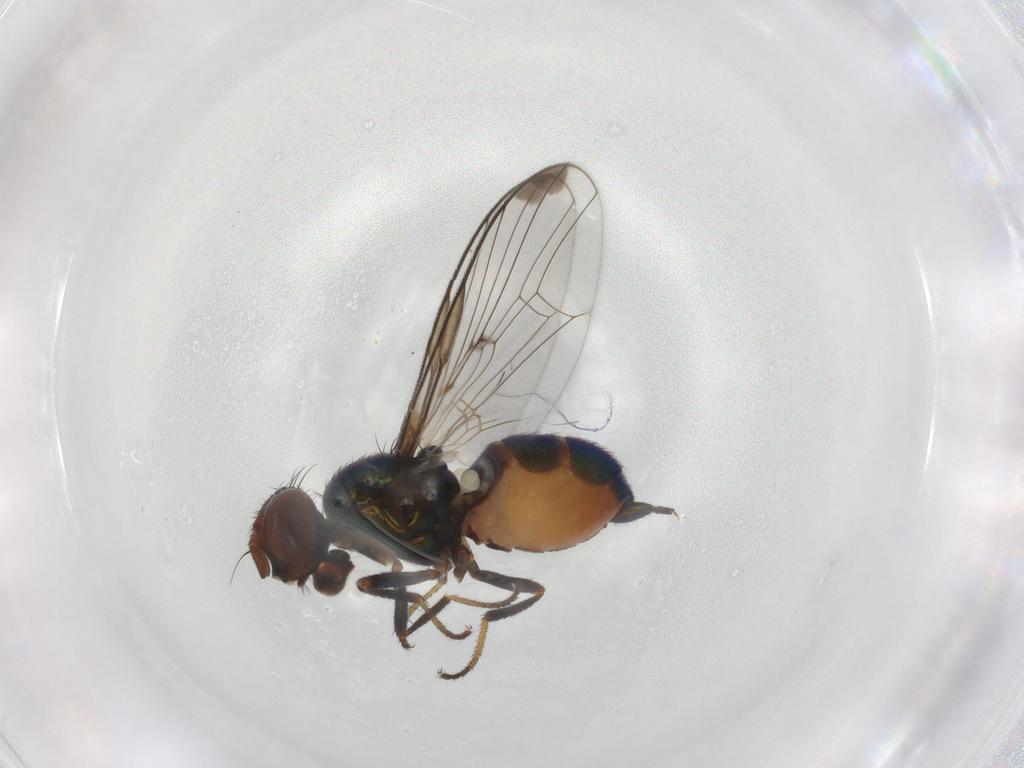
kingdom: Animalia
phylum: Arthropoda
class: Insecta
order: Diptera
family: Platystomatidae
